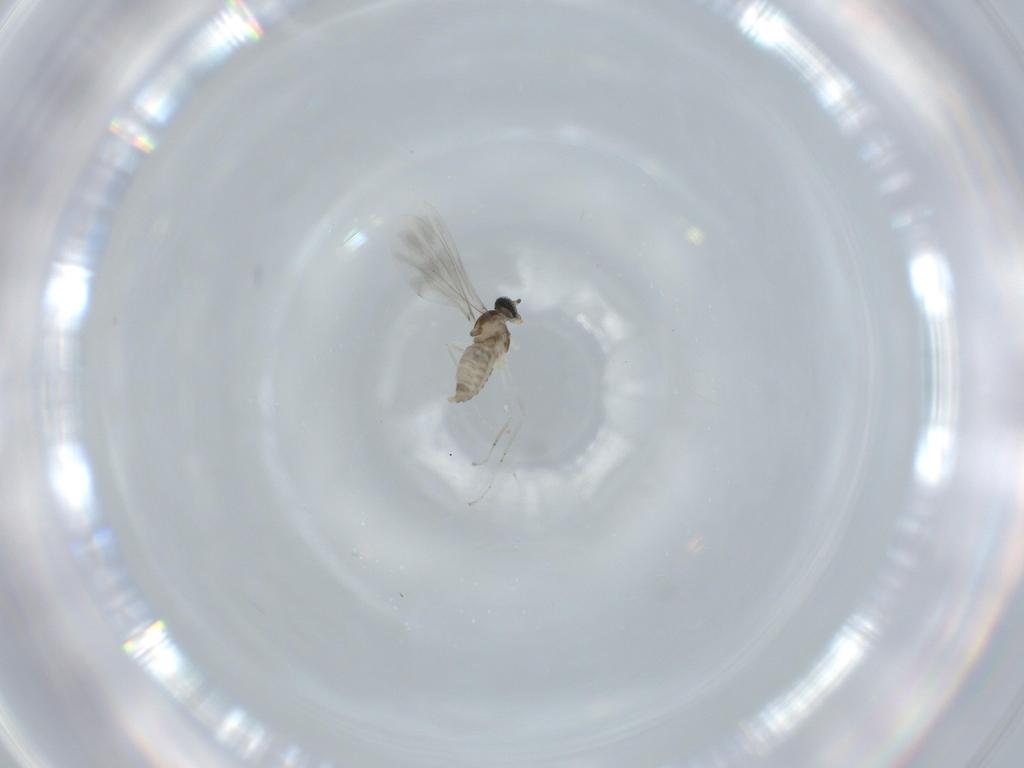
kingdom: Animalia
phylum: Arthropoda
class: Insecta
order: Diptera
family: Cecidomyiidae
